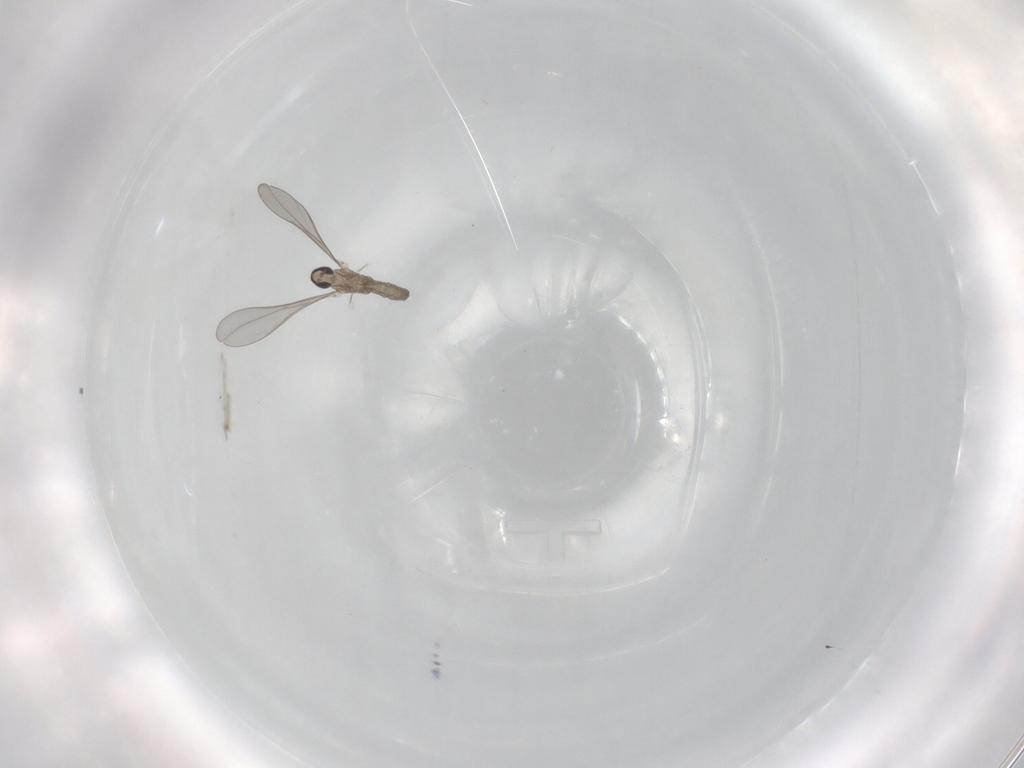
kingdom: Animalia
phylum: Arthropoda
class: Insecta
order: Diptera
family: Cecidomyiidae
